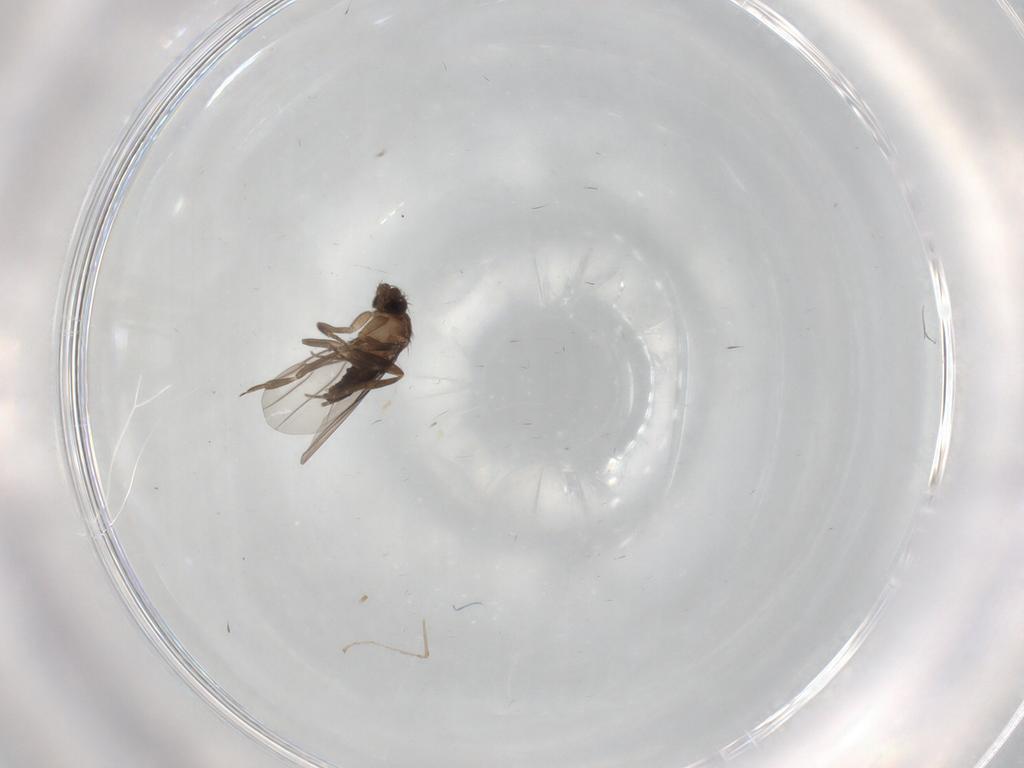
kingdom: Animalia
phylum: Arthropoda
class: Insecta
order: Diptera
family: Cecidomyiidae
